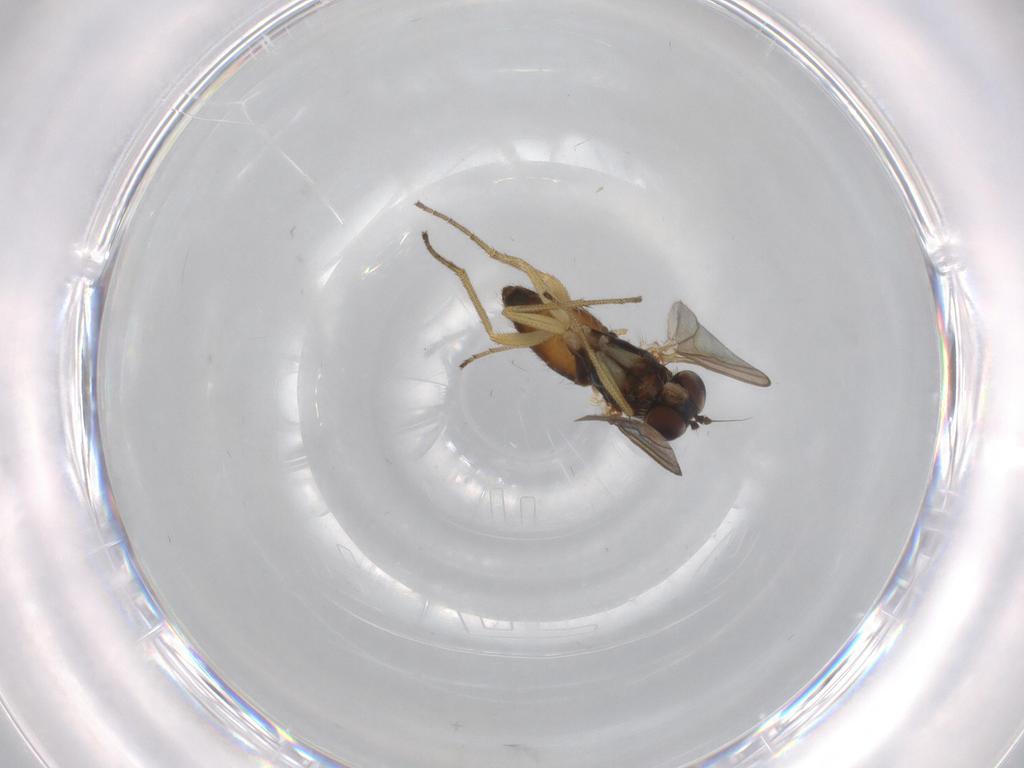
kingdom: Animalia
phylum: Arthropoda
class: Insecta
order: Diptera
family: Dolichopodidae
